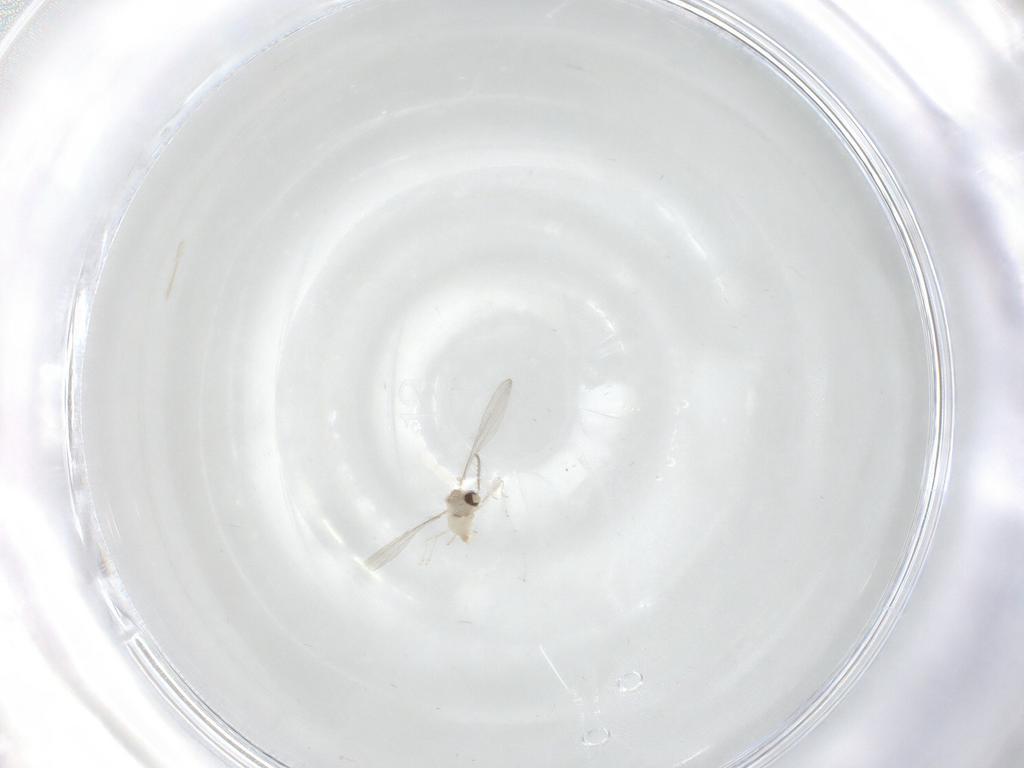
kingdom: Animalia
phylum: Arthropoda
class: Insecta
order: Diptera
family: Cecidomyiidae
